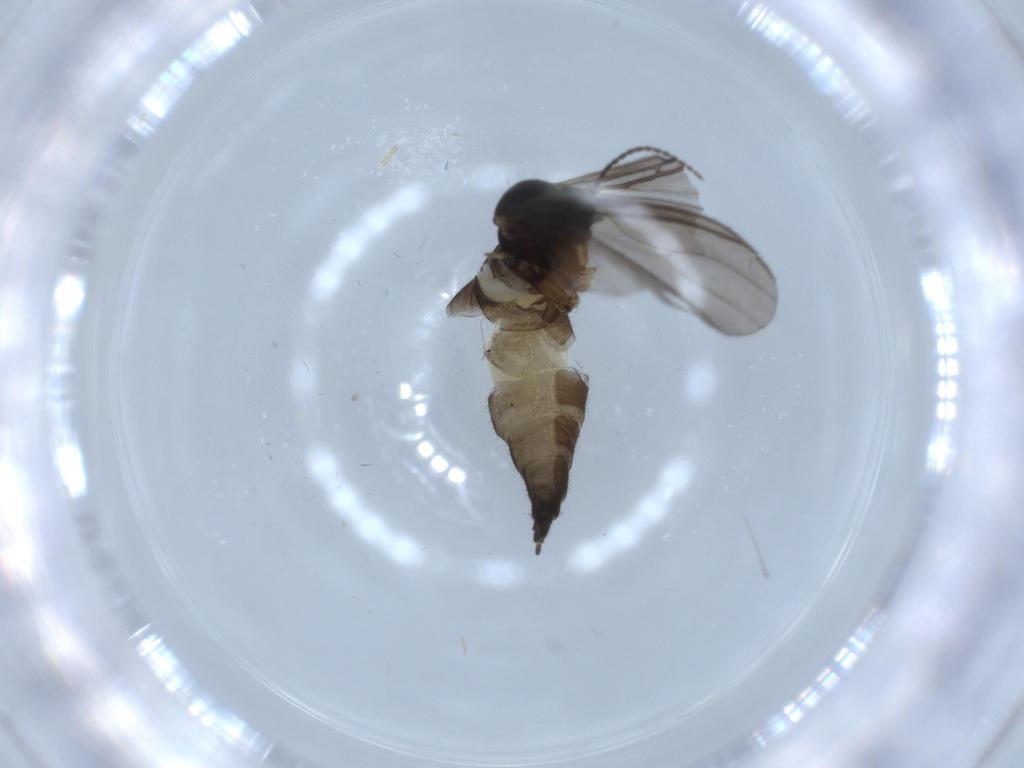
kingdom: Animalia
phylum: Arthropoda
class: Insecta
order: Diptera
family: Sciaridae
